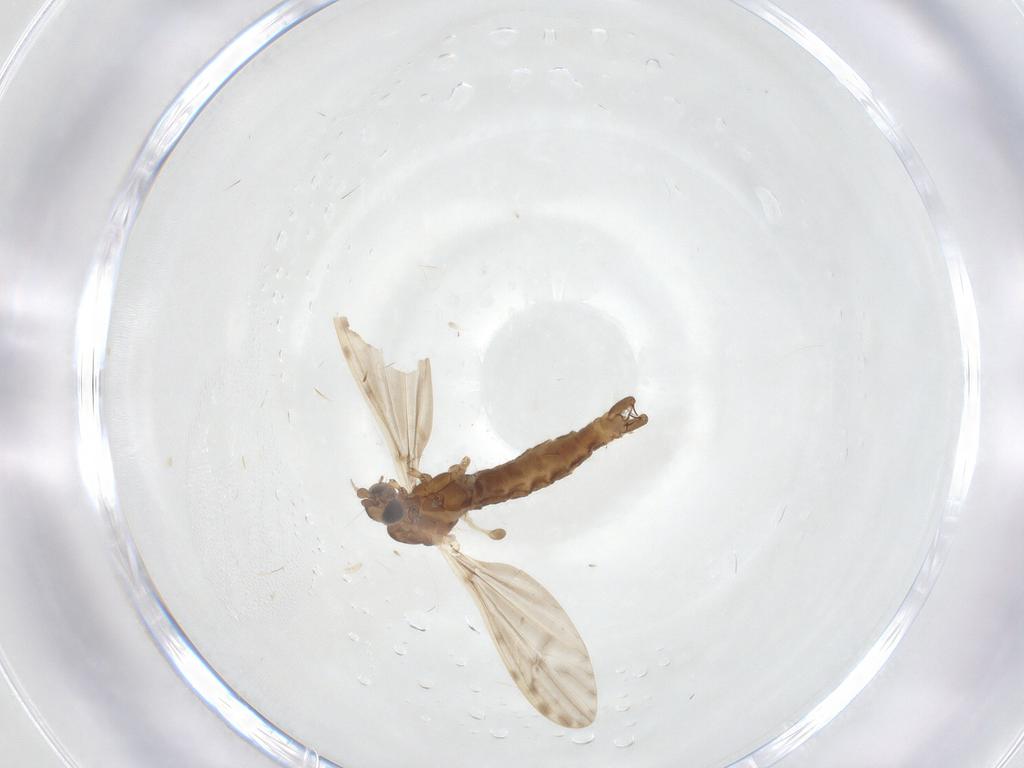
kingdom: Animalia
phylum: Arthropoda
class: Insecta
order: Diptera
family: Limoniidae
